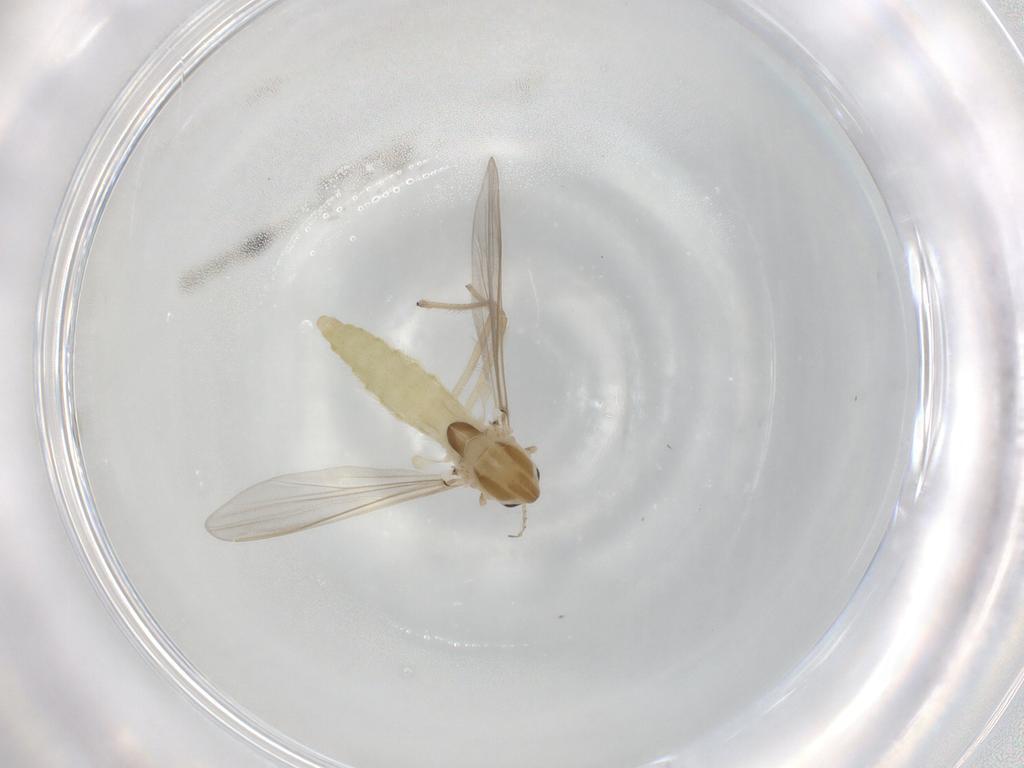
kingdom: Animalia
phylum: Arthropoda
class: Insecta
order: Diptera
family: Chironomidae
